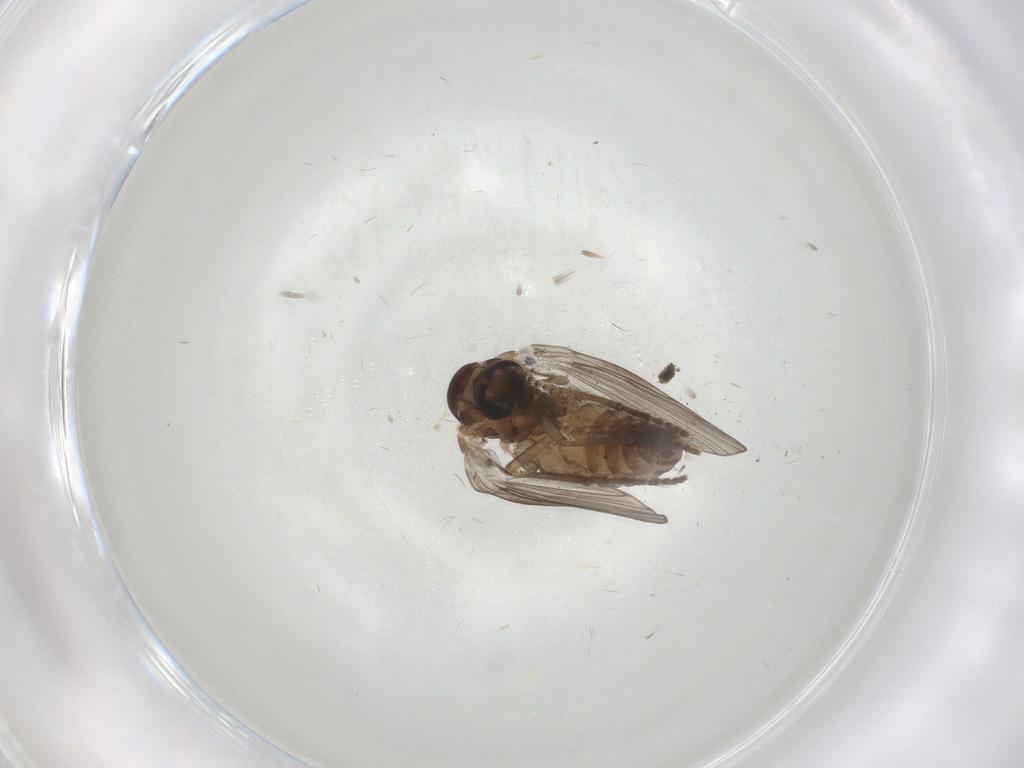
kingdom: Animalia
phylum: Arthropoda
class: Insecta
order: Diptera
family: Psychodidae
